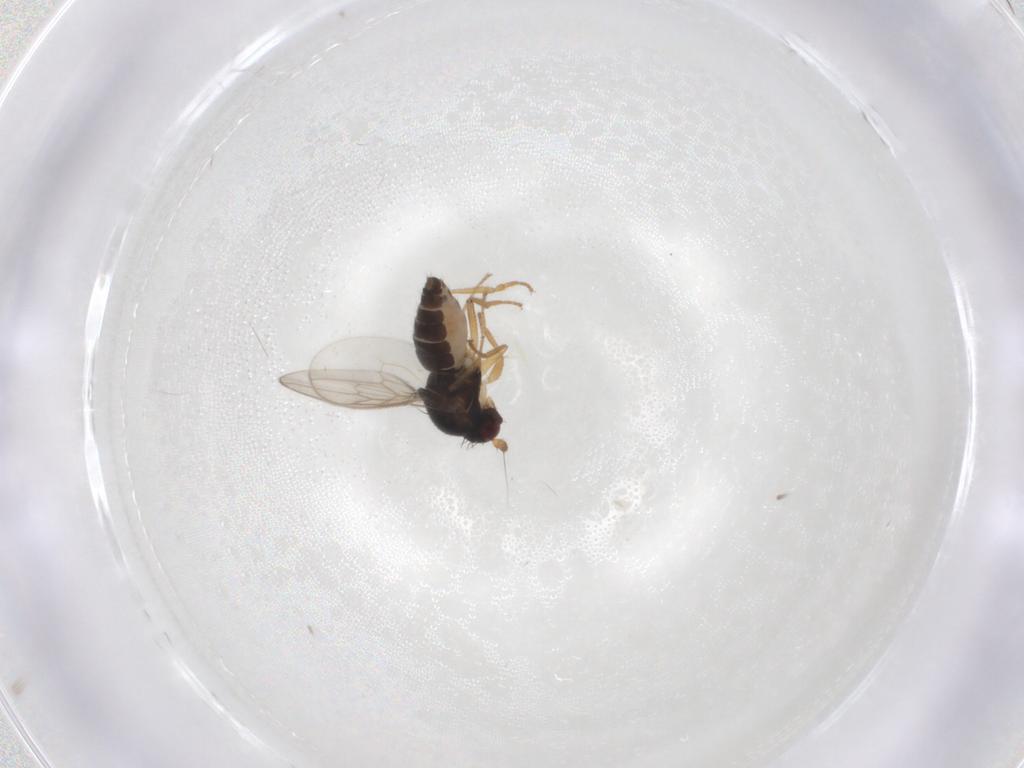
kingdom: Animalia
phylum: Arthropoda
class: Insecta
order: Diptera
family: Sphaeroceridae
